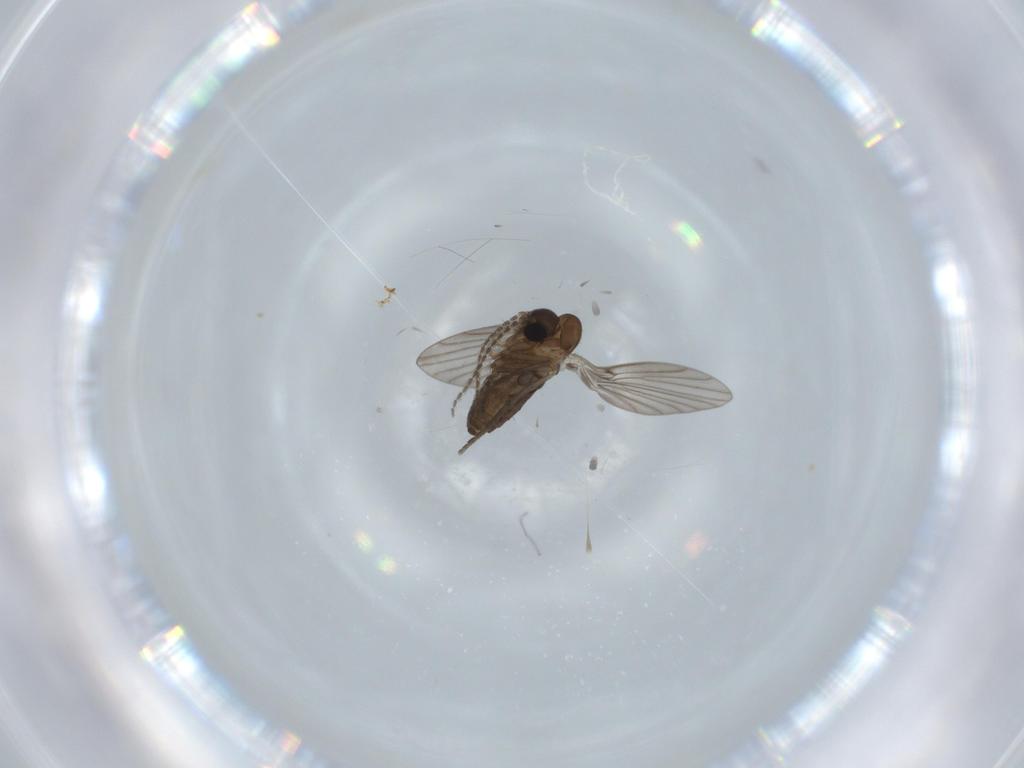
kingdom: Animalia
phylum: Arthropoda
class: Insecta
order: Diptera
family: Psychodidae
